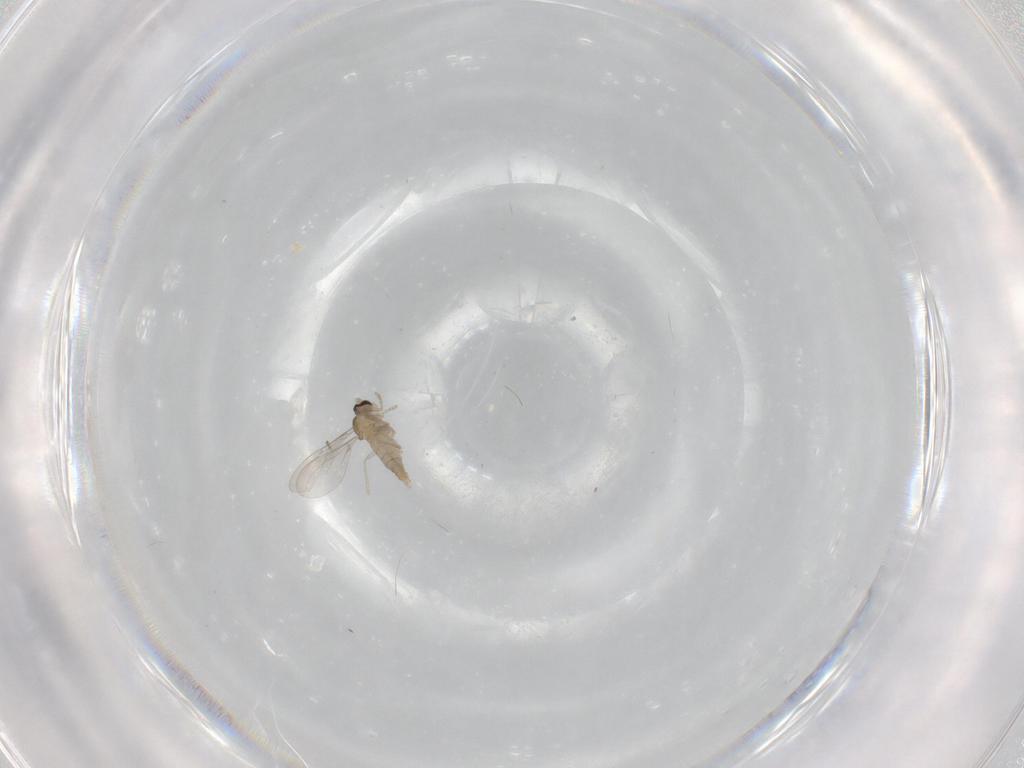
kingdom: Animalia
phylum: Arthropoda
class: Insecta
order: Diptera
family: Cecidomyiidae
